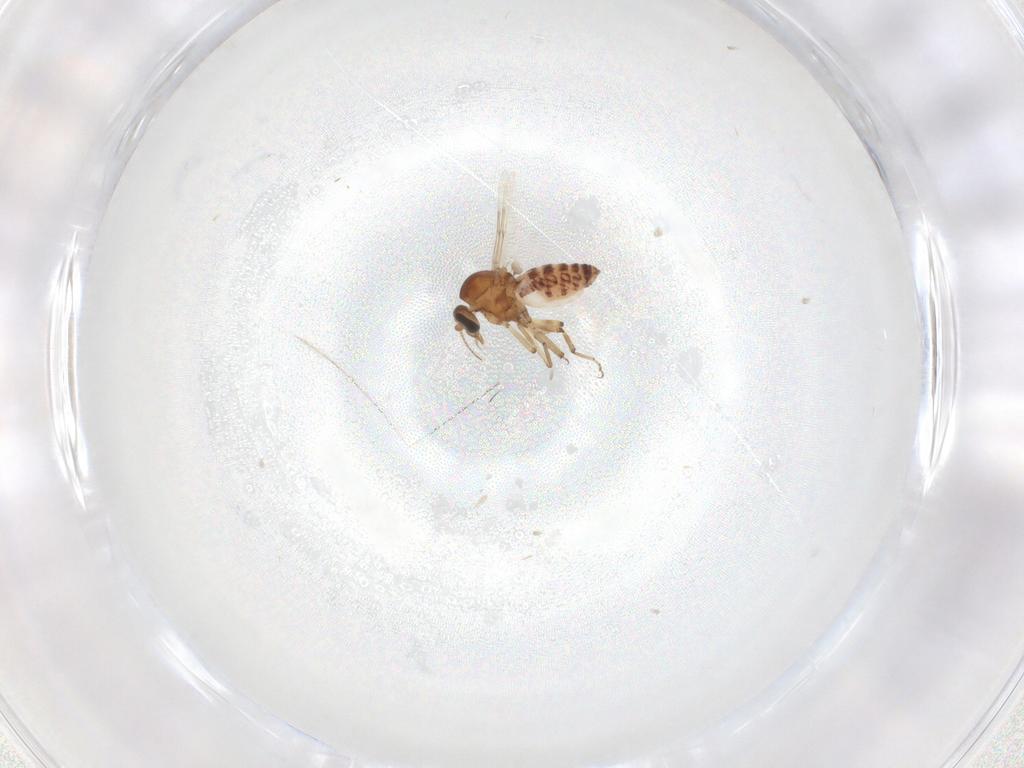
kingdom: Animalia
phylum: Arthropoda
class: Insecta
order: Diptera
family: Ceratopogonidae
